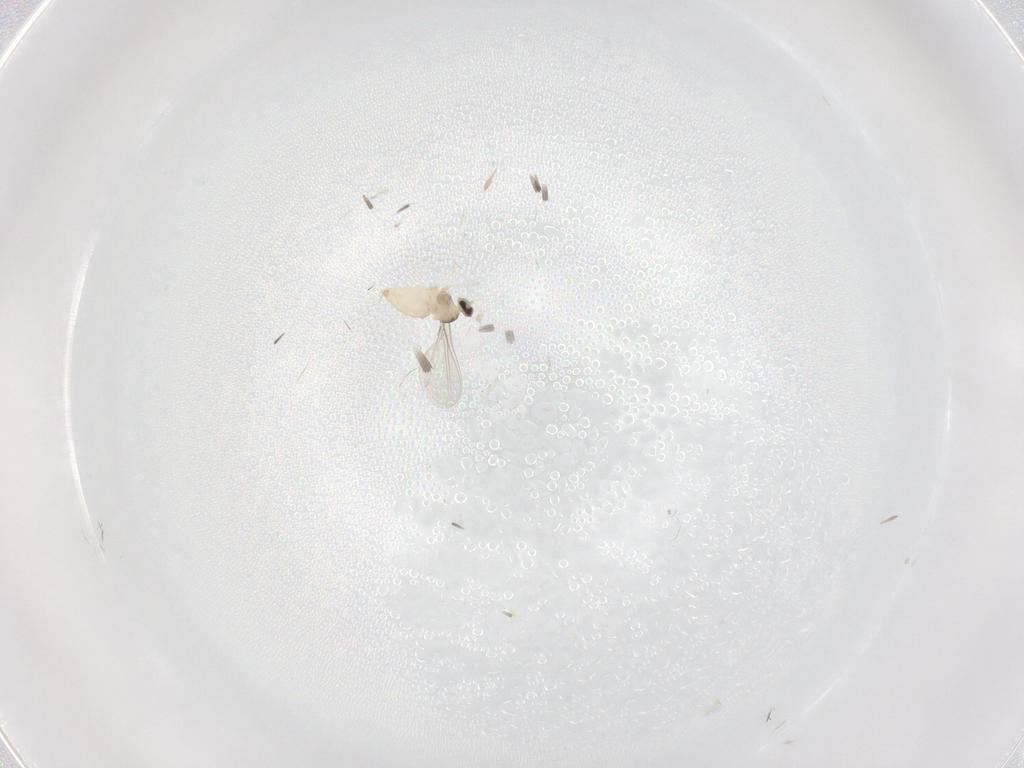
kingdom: Animalia
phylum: Arthropoda
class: Insecta
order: Diptera
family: Cecidomyiidae
